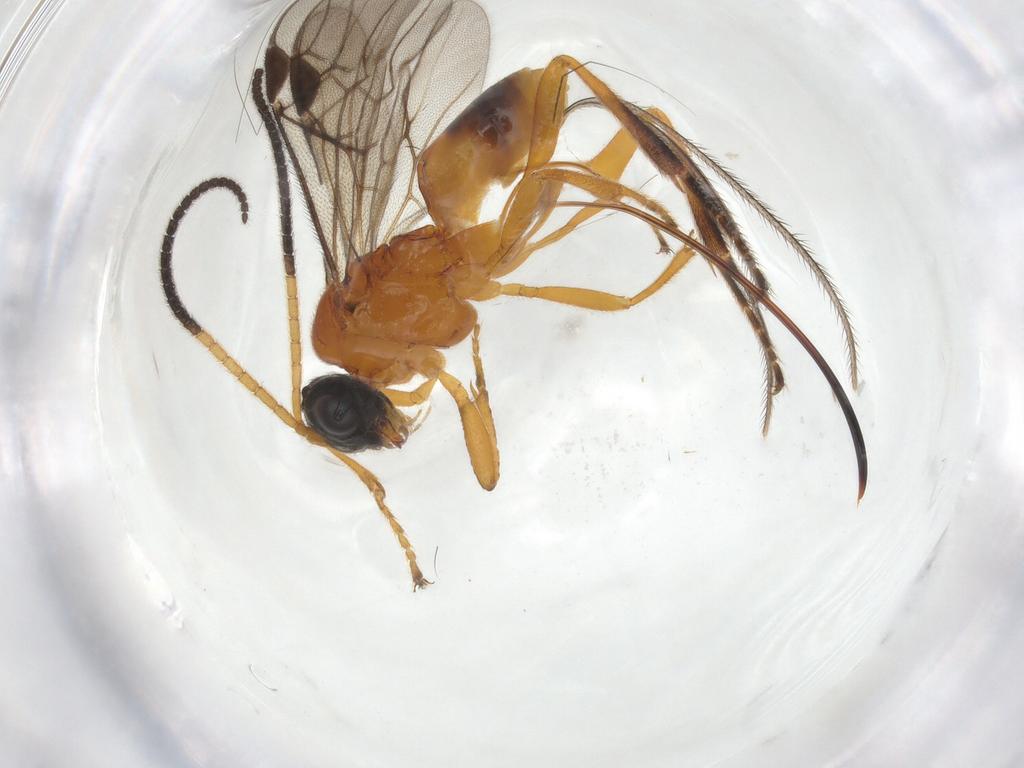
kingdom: Animalia
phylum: Arthropoda
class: Insecta
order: Hymenoptera
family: Braconidae
